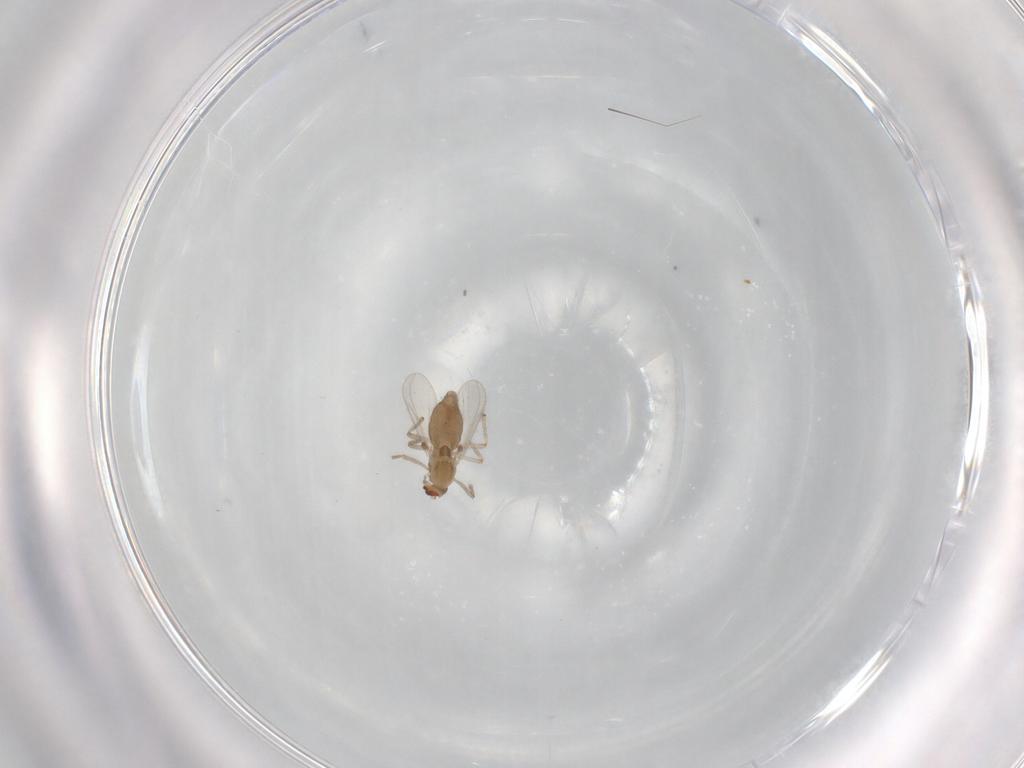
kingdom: Animalia
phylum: Arthropoda
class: Insecta
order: Diptera
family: Chironomidae
